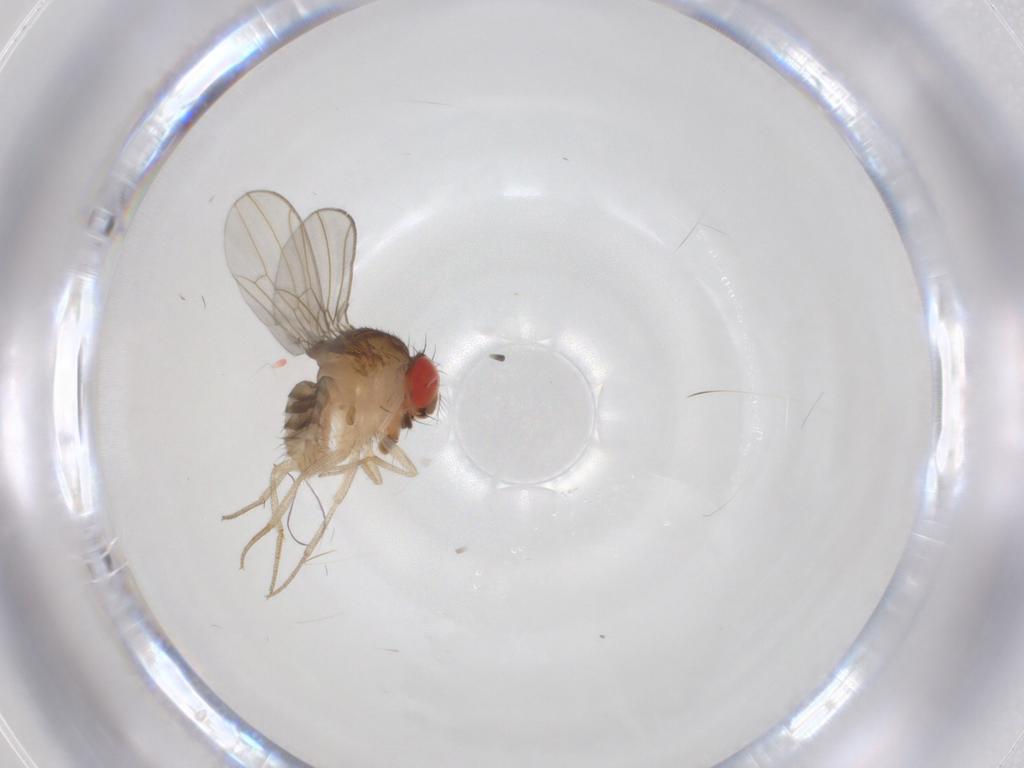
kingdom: Animalia
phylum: Arthropoda
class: Insecta
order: Diptera
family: Drosophilidae
